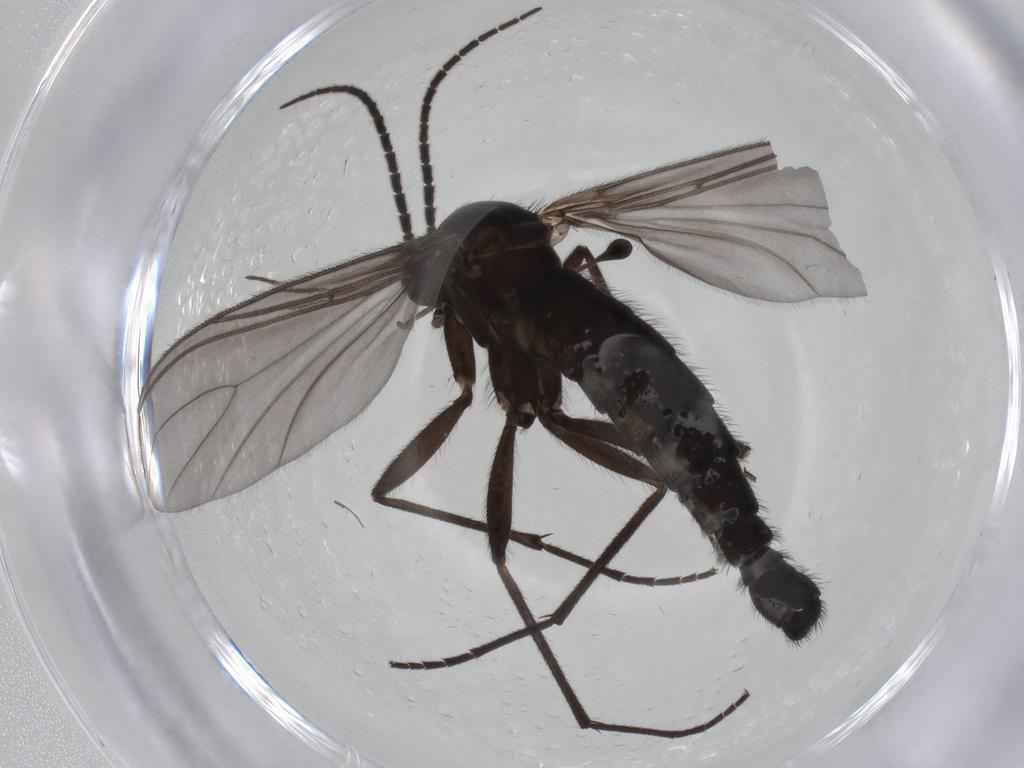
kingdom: Animalia
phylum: Arthropoda
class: Insecta
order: Diptera
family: Sciaridae
